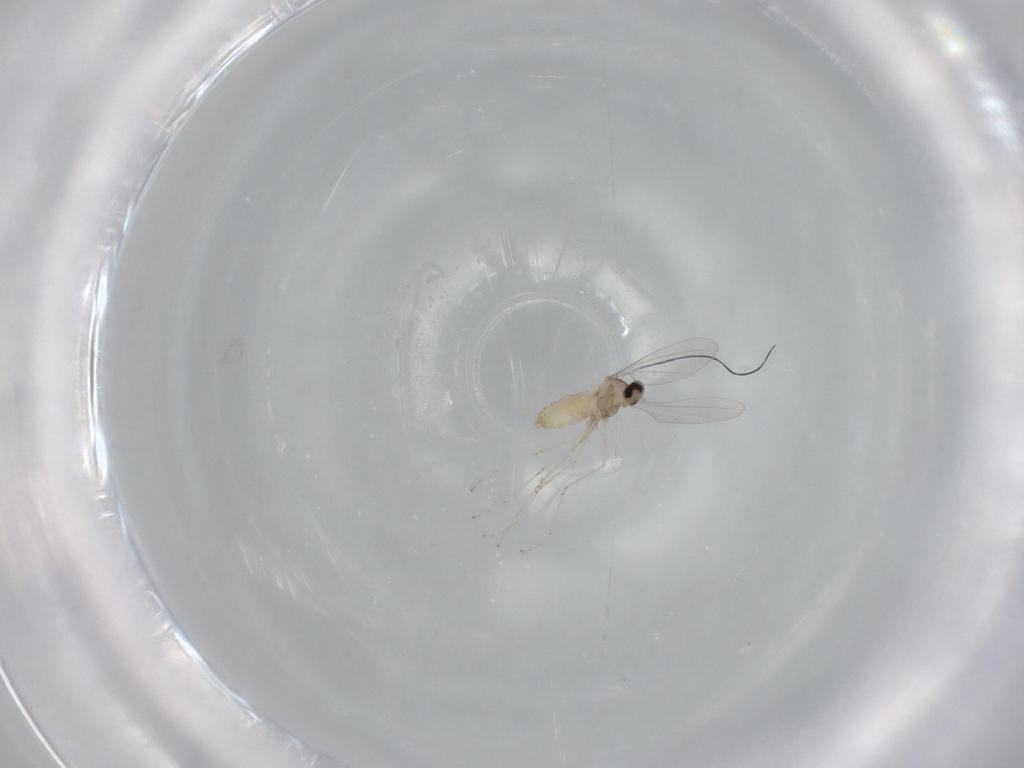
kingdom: Animalia
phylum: Arthropoda
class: Insecta
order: Diptera
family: Cecidomyiidae
